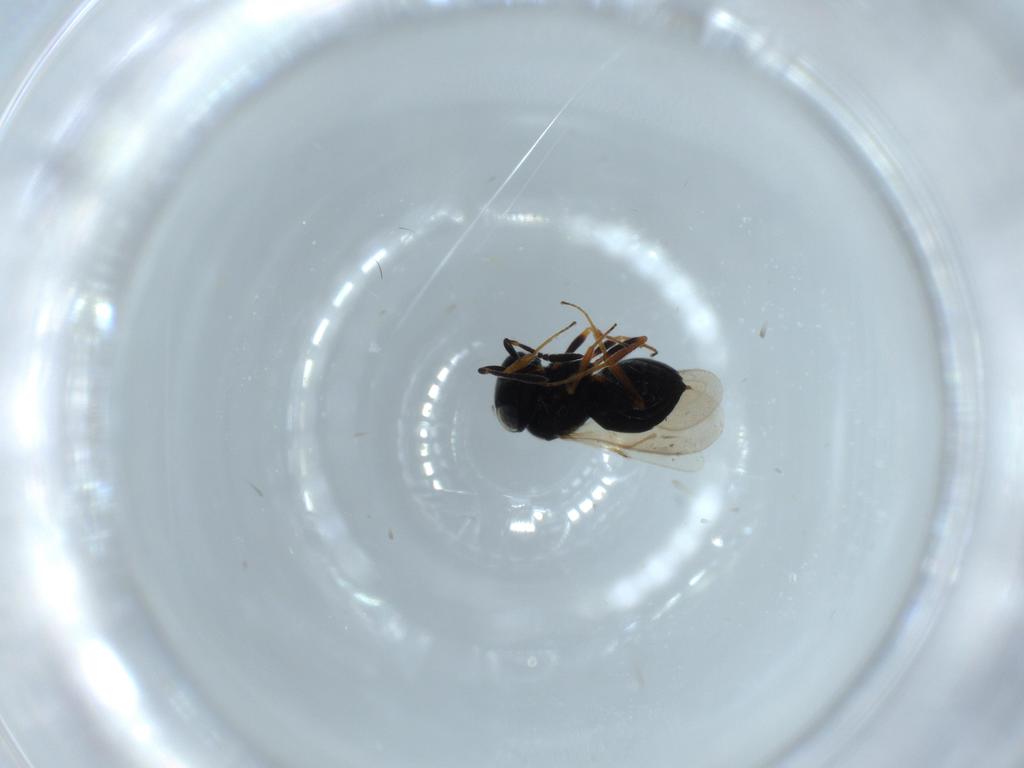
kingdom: Animalia
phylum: Arthropoda
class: Insecta
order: Hymenoptera
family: Scelionidae
